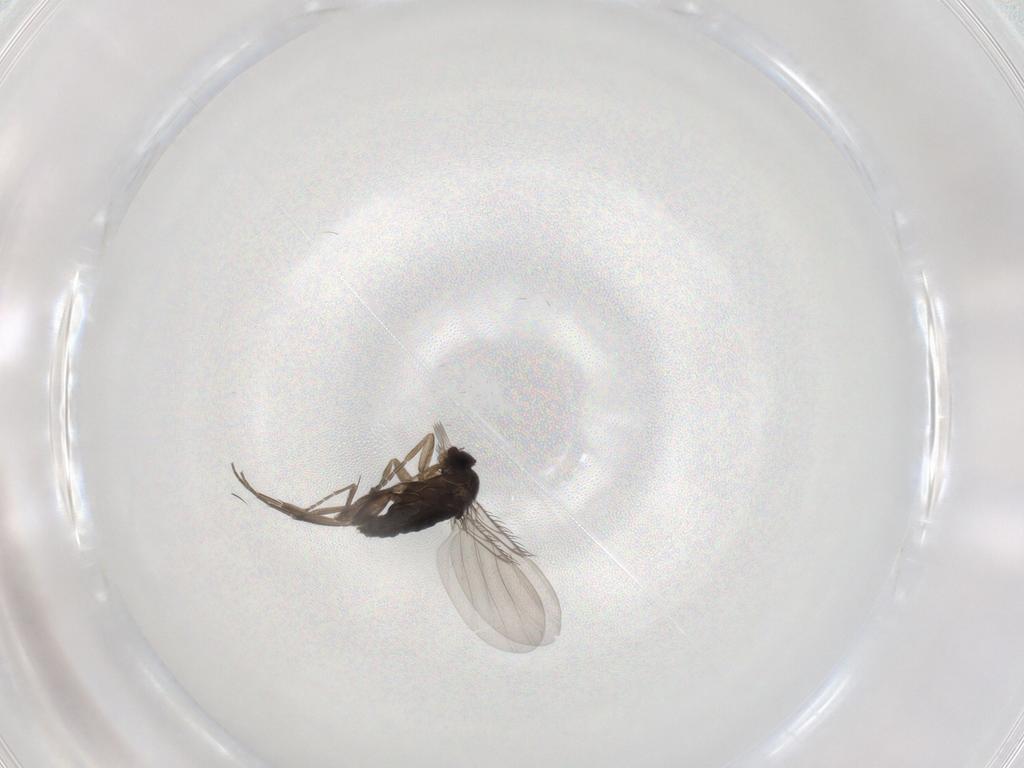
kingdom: Animalia
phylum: Arthropoda
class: Insecta
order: Diptera
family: Phoridae
